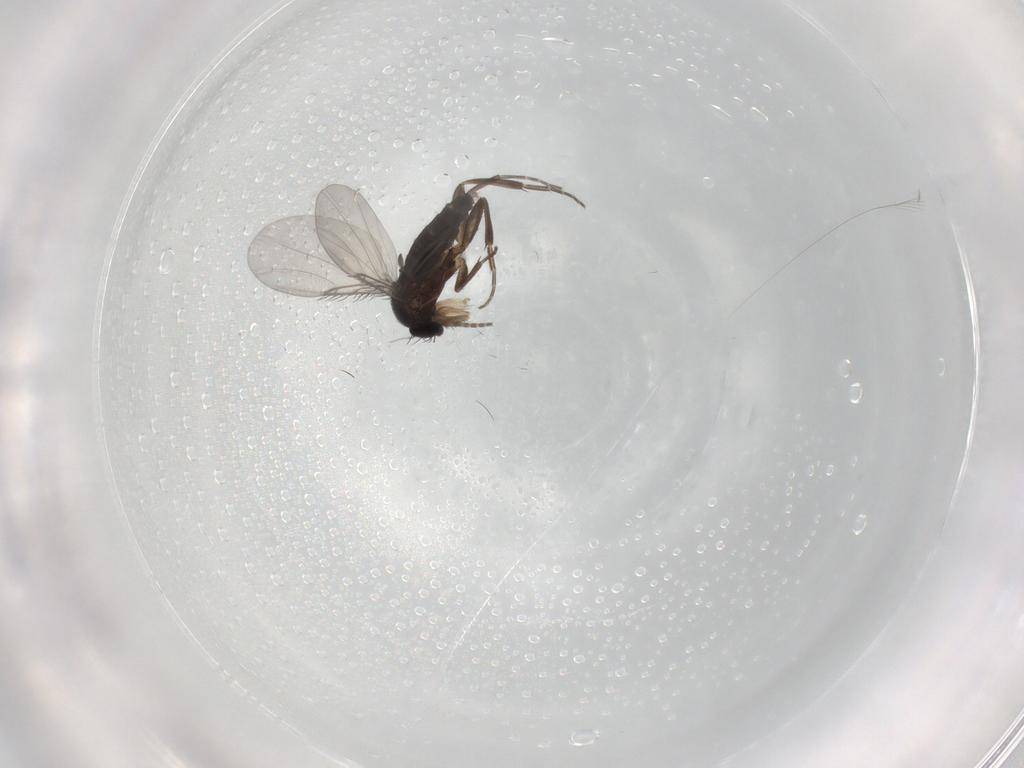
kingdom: Animalia
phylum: Arthropoda
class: Insecta
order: Diptera
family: Phoridae
